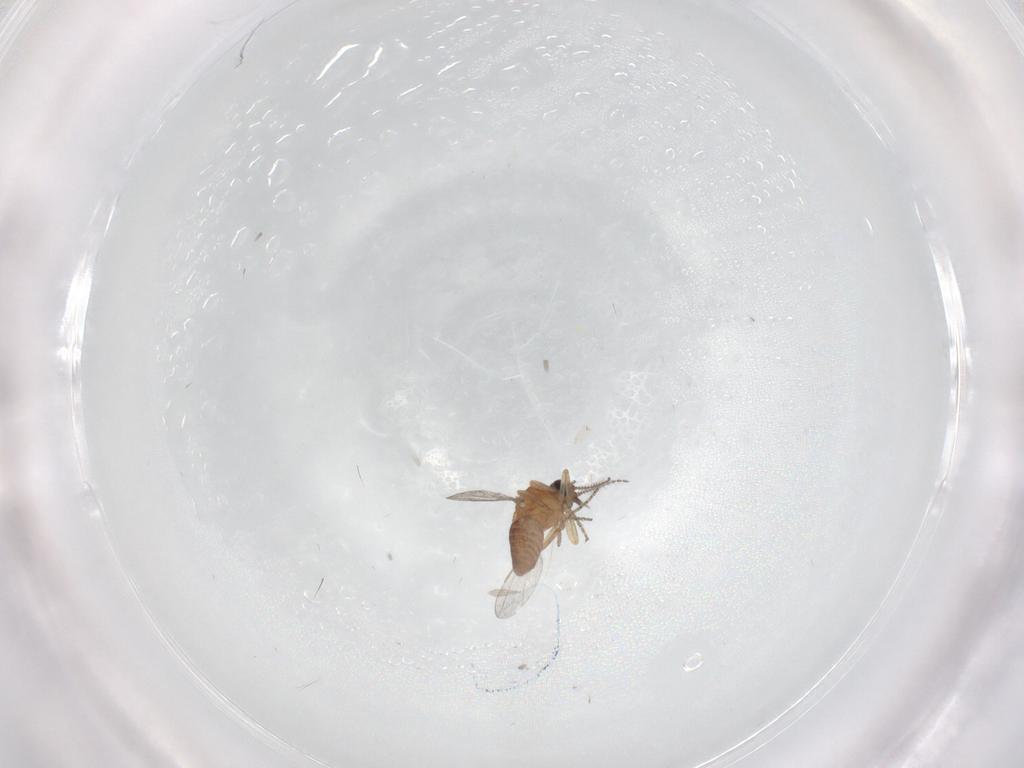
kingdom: Animalia
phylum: Arthropoda
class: Insecta
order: Diptera
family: Ceratopogonidae
